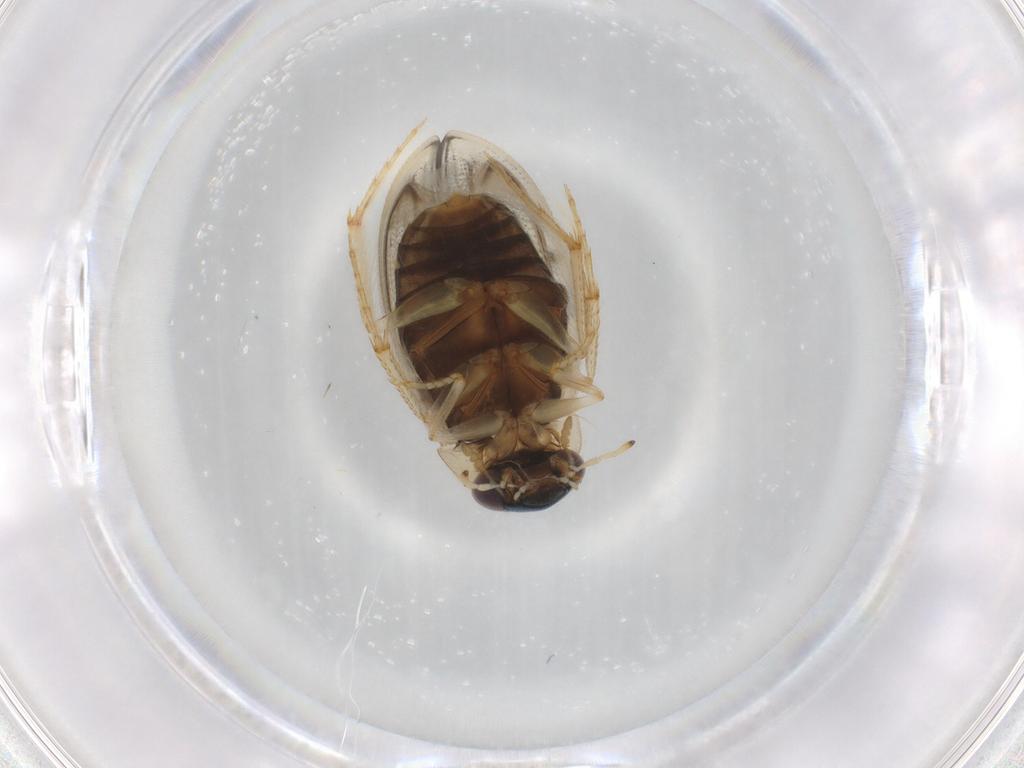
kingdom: Animalia
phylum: Arthropoda
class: Insecta
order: Coleoptera
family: Hydrophilidae
